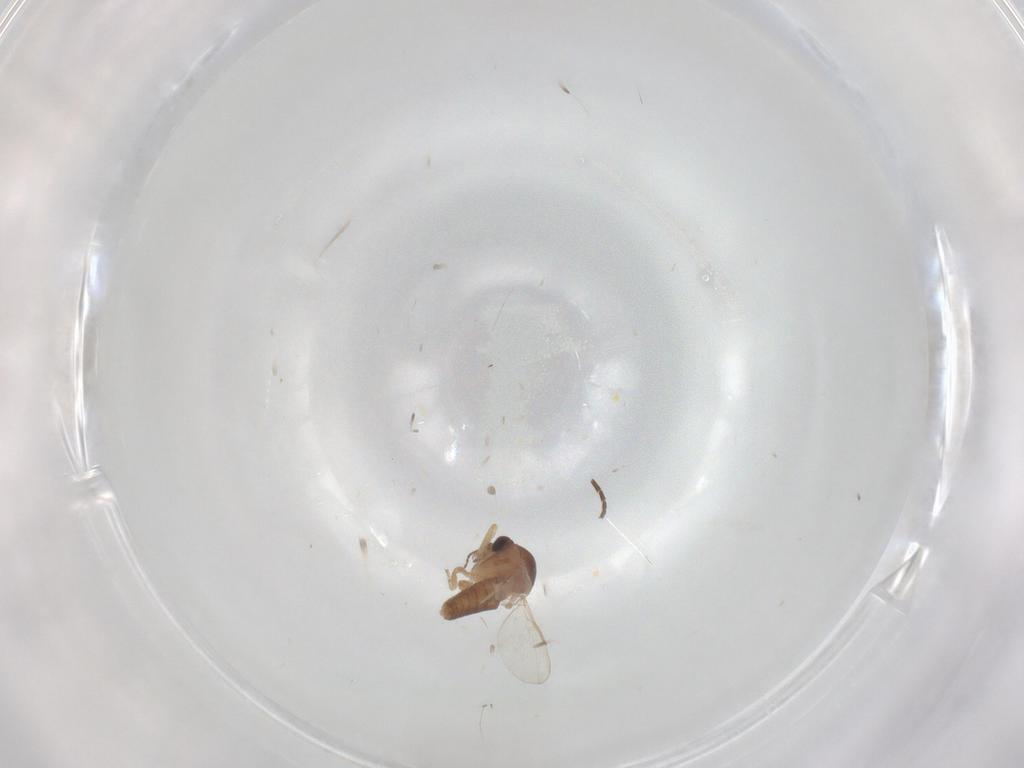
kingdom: Animalia
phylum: Arthropoda
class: Insecta
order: Diptera
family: Ceratopogonidae
